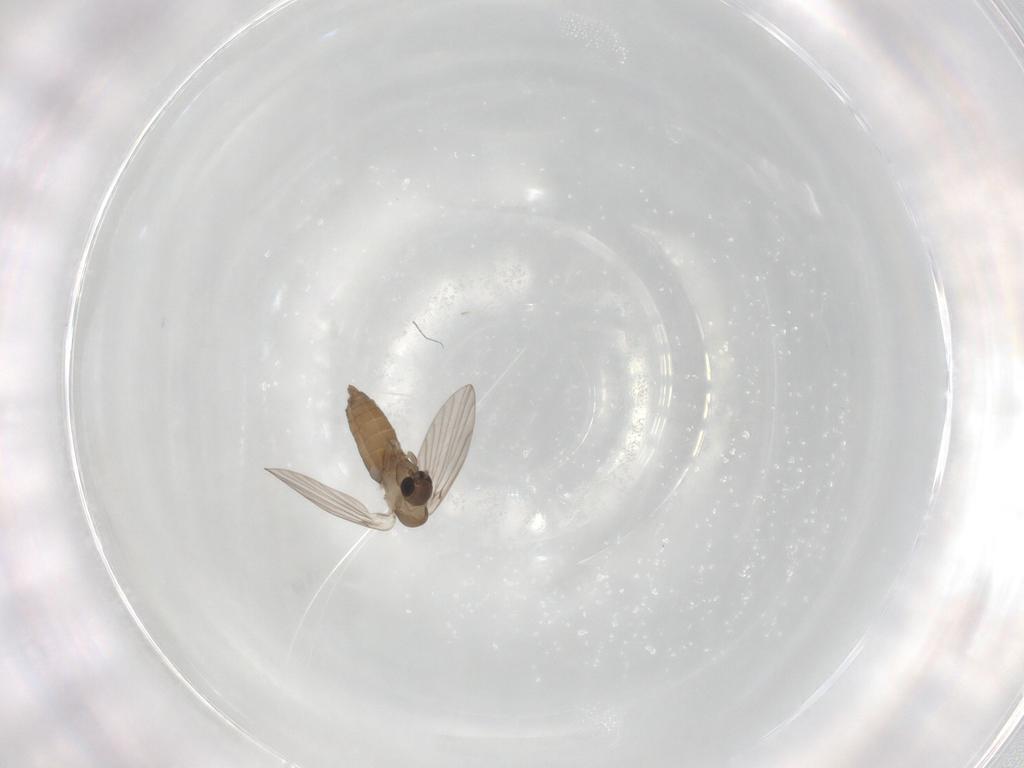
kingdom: Animalia
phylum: Arthropoda
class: Insecta
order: Diptera
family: Psychodidae
